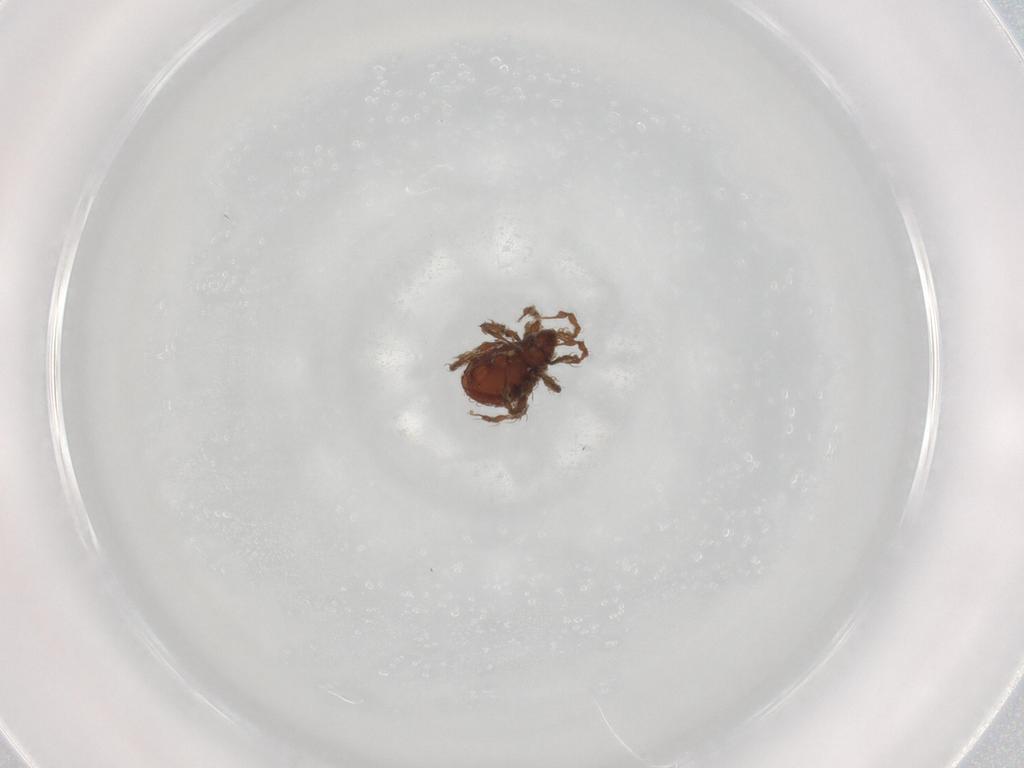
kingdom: Animalia
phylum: Arthropoda
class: Arachnida
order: Sarcoptiformes
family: Damaeidae
